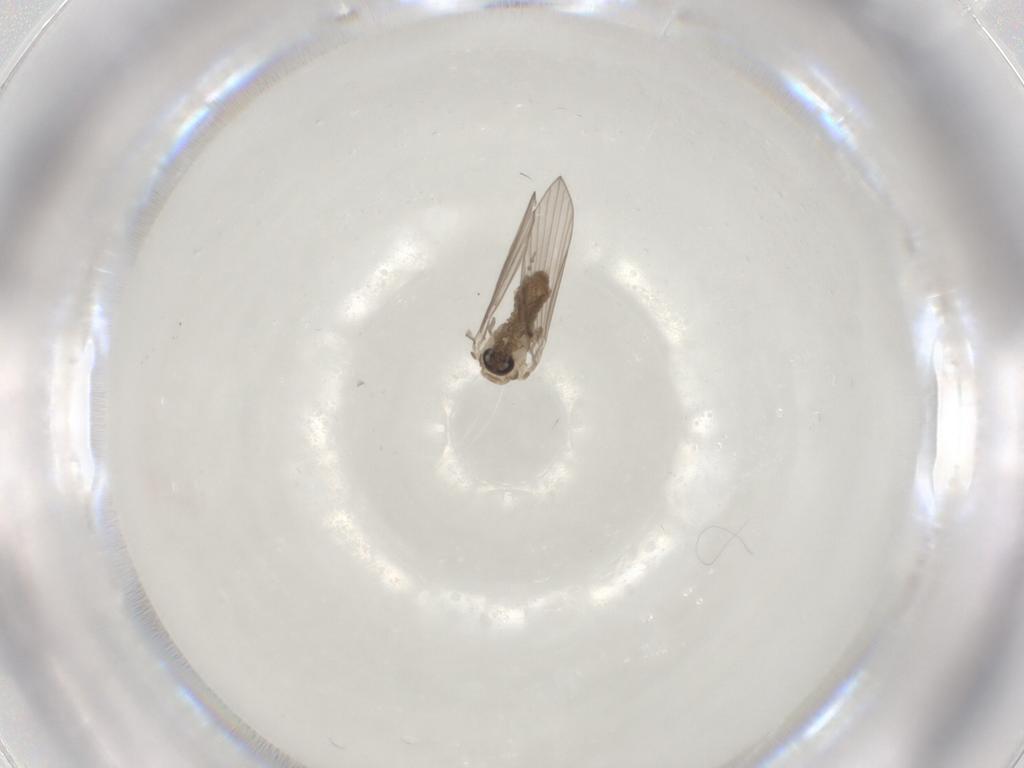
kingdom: Animalia
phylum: Arthropoda
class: Insecta
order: Diptera
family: Psychodidae
